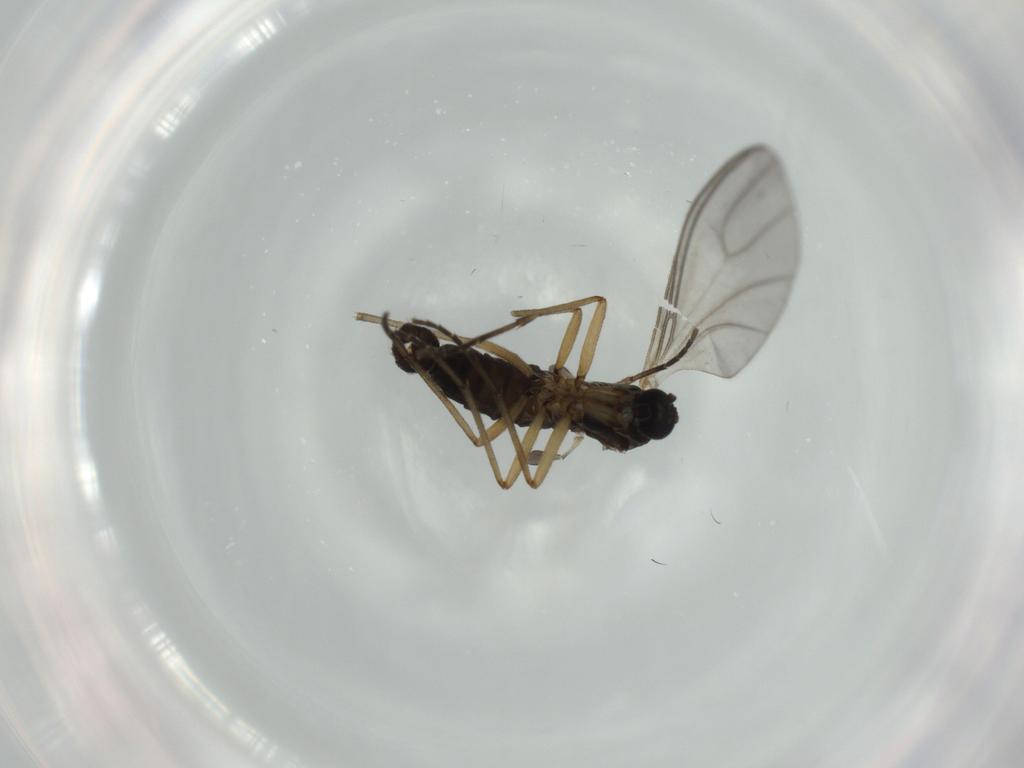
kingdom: Animalia
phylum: Arthropoda
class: Insecta
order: Diptera
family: Sciaridae
